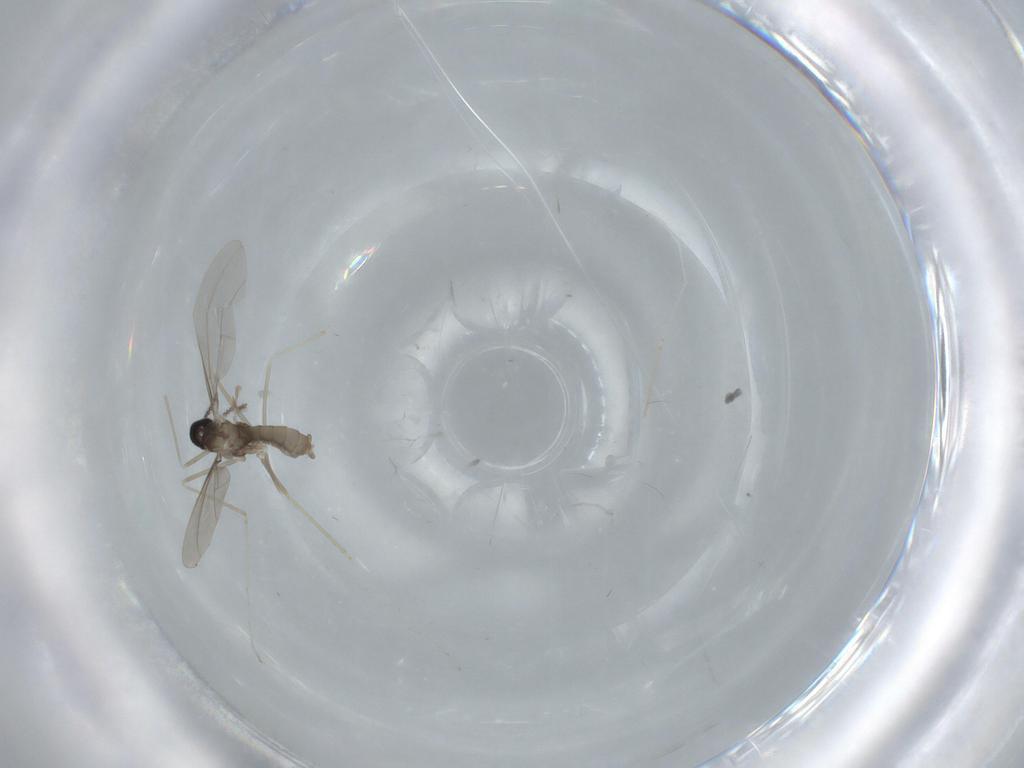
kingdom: Animalia
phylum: Arthropoda
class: Insecta
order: Diptera
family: Cecidomyiidae
